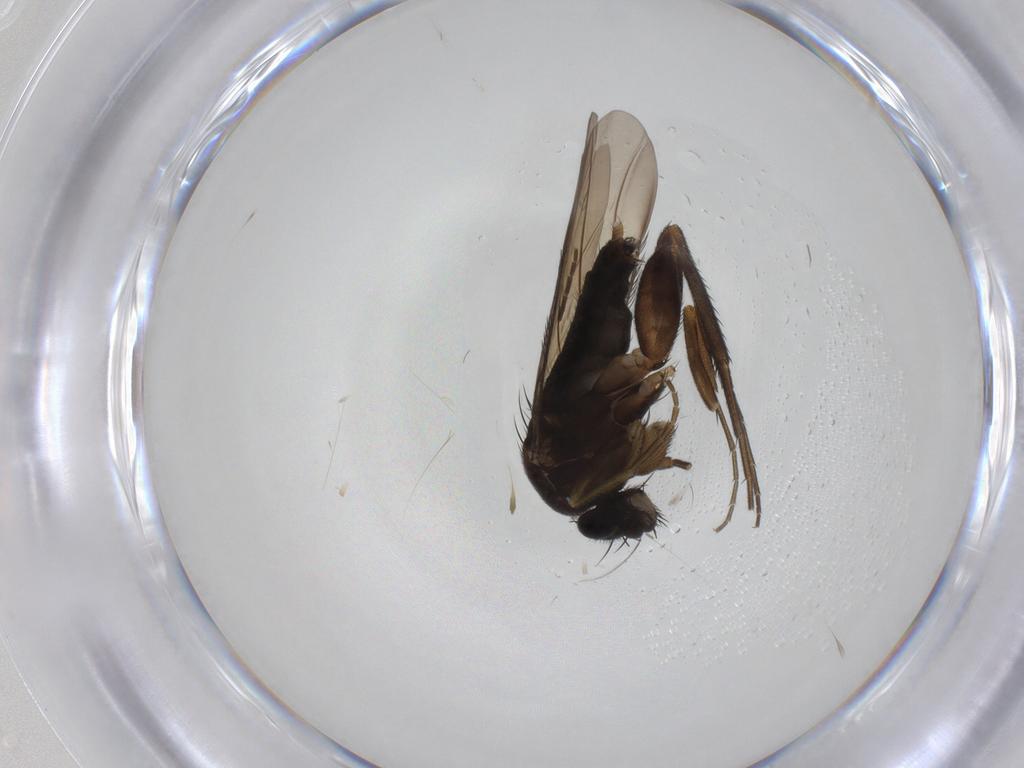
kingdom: Animalia
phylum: Arthropoda
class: Insecta
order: Diptera
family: Phoridae
